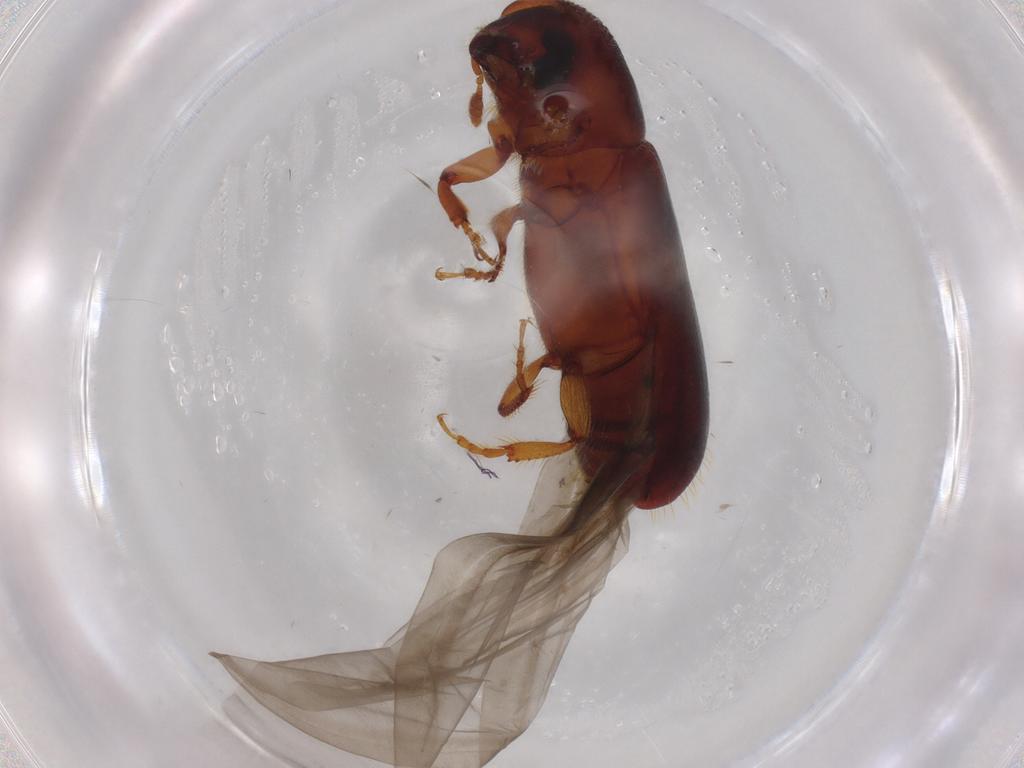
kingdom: Animalia
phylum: Arthropoda
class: Insecta
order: Coleoptera
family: Curculionidae
